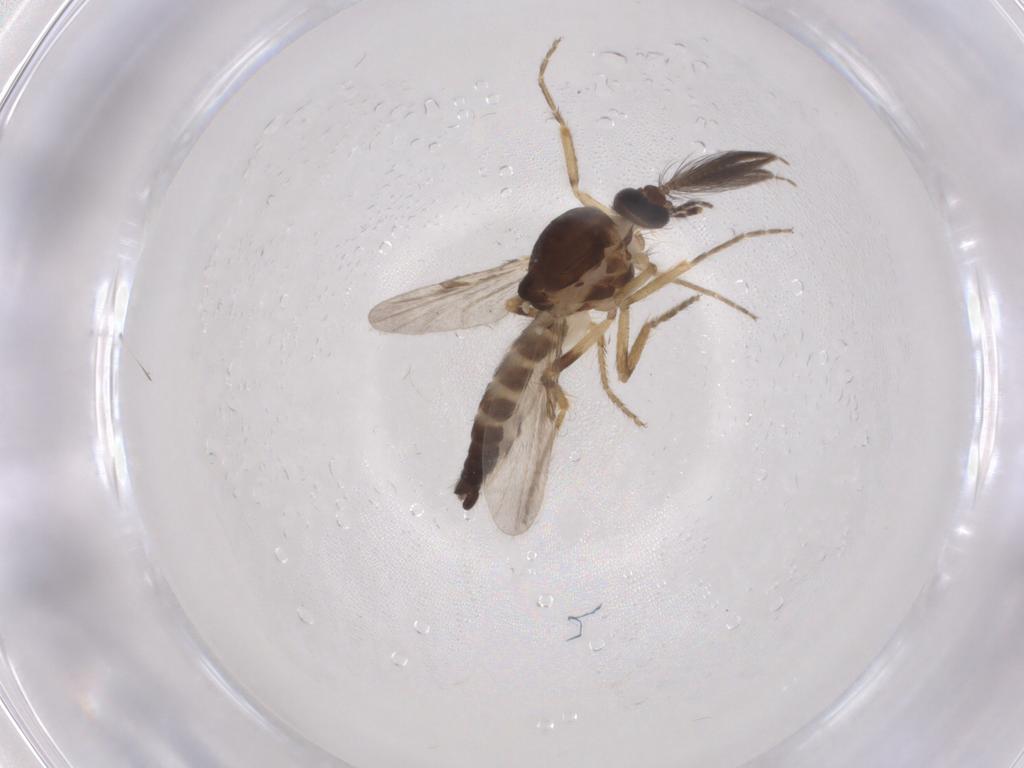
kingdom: Animalia
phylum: Arthropoda
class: Insecta
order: Diptera
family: Ceratopogonidae
